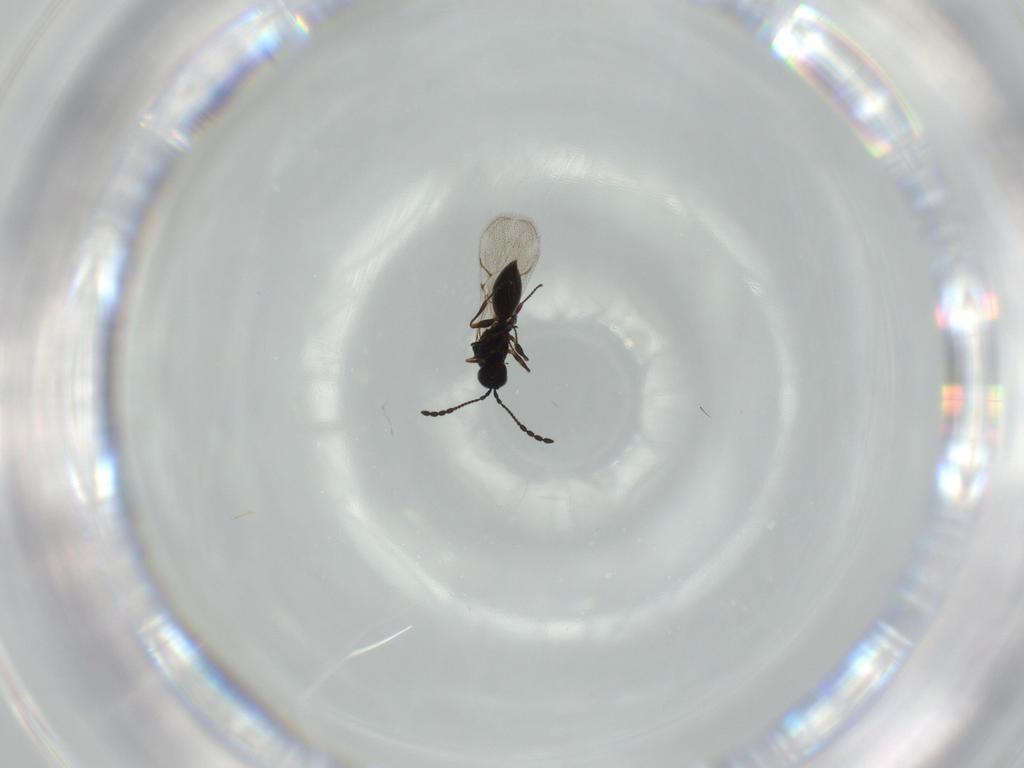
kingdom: Animalia
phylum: Arthropoda
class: Insecta
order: Hymenoptera
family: Figitidae
